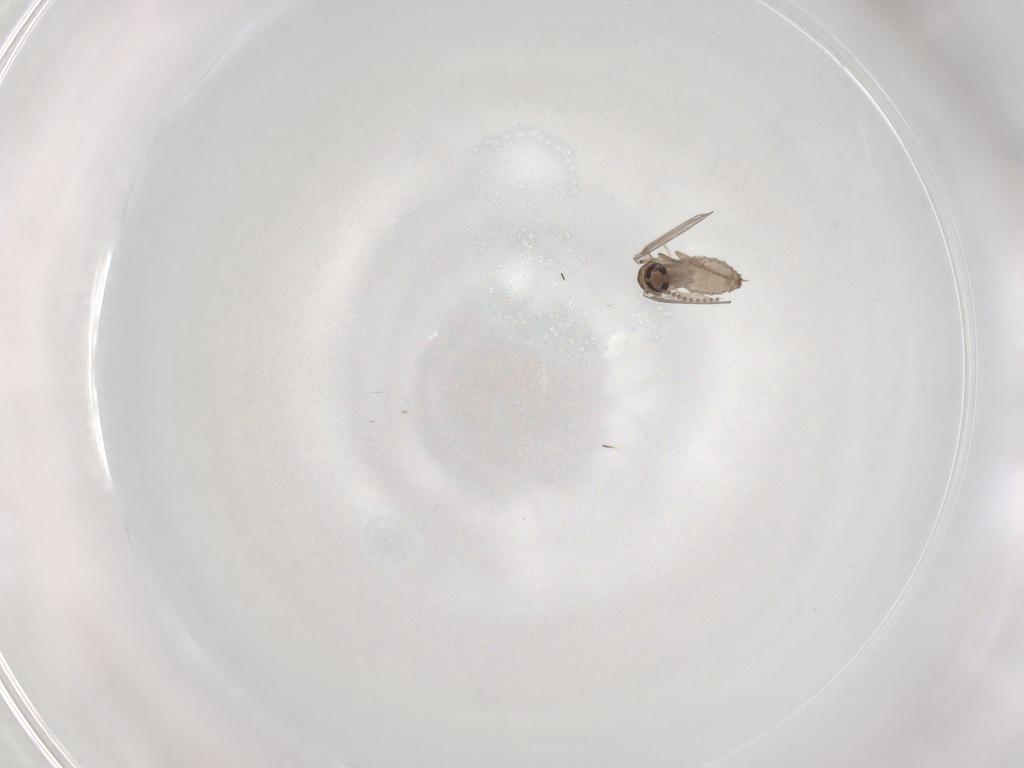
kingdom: Animalia
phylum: Arthropoda
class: Insecta
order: Diptera
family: Psychodidae
